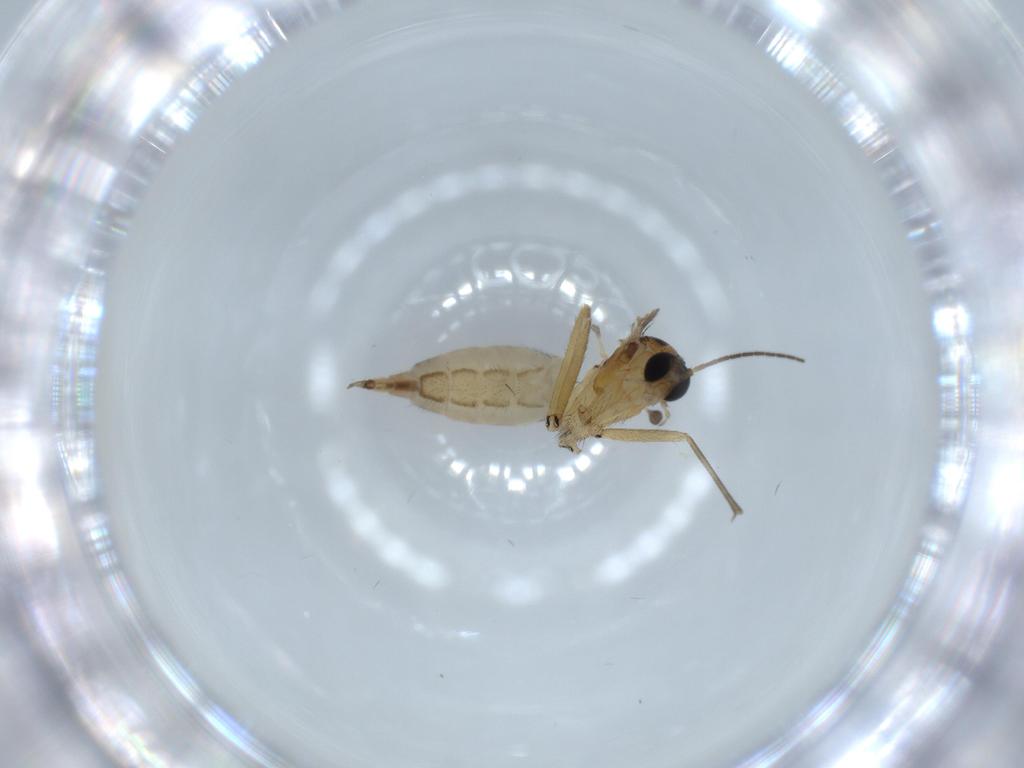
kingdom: Animalia
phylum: Arthropoda
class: Insecta
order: Diptera
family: Sciaridae
